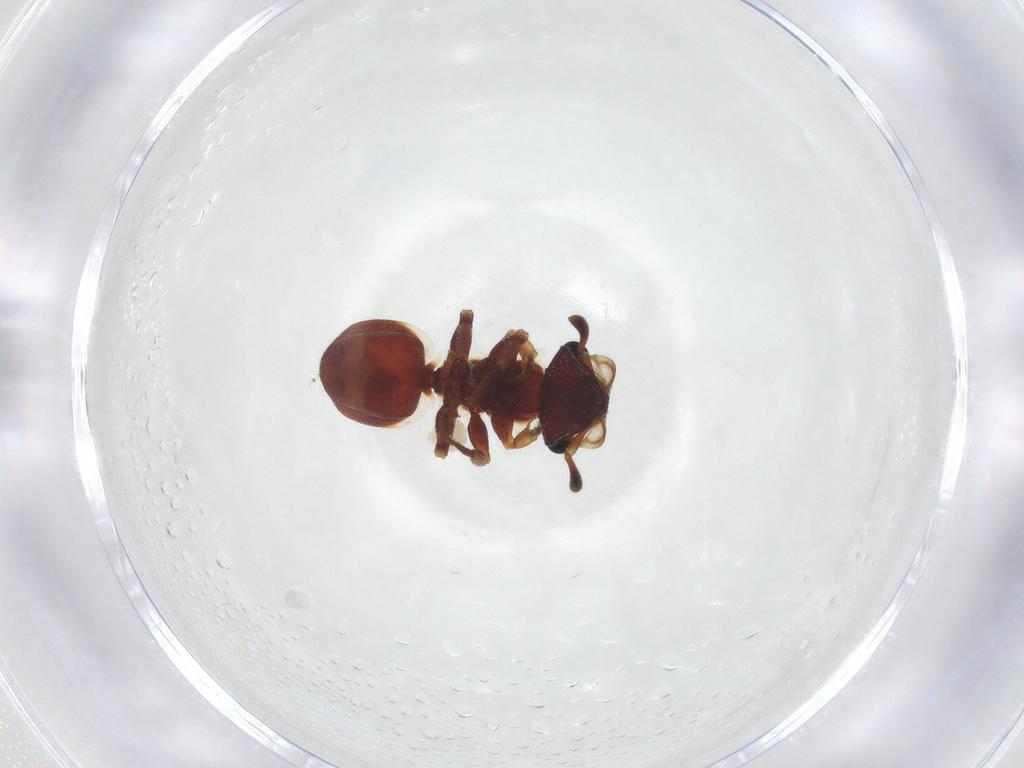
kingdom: Animalia
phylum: Arthropoda
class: Insecta
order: Hymenoptera
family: Formicidae
